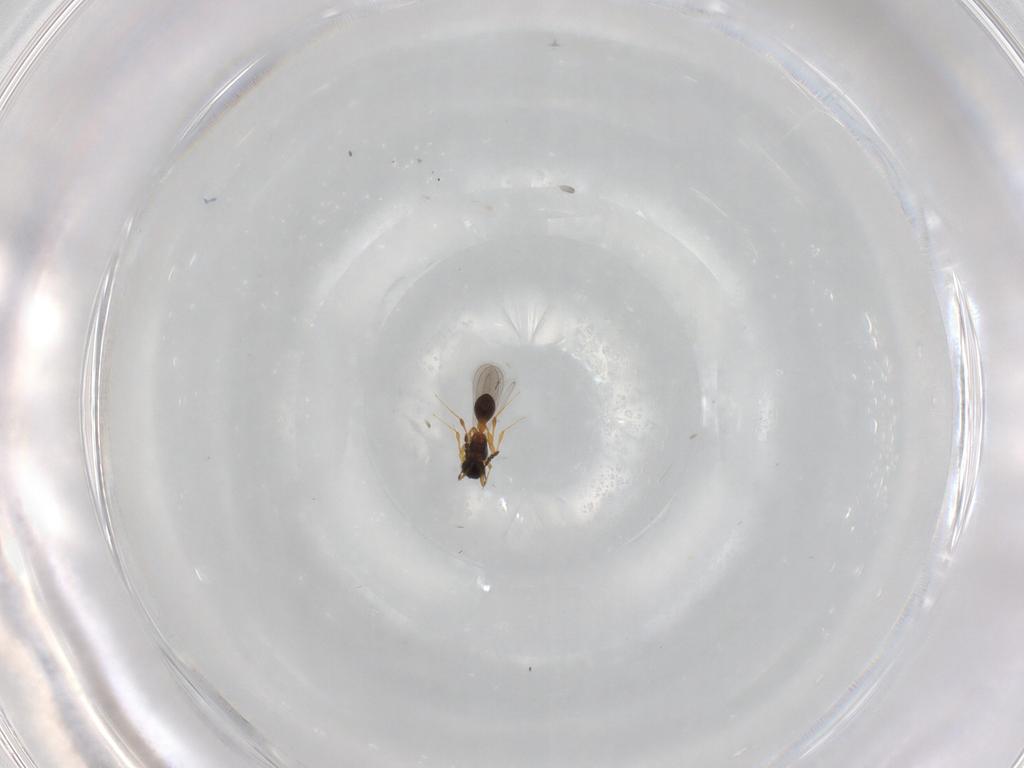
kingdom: Animalia
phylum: Arthropoda
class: Insecta
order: Hymenoptera
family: Platygastridae
